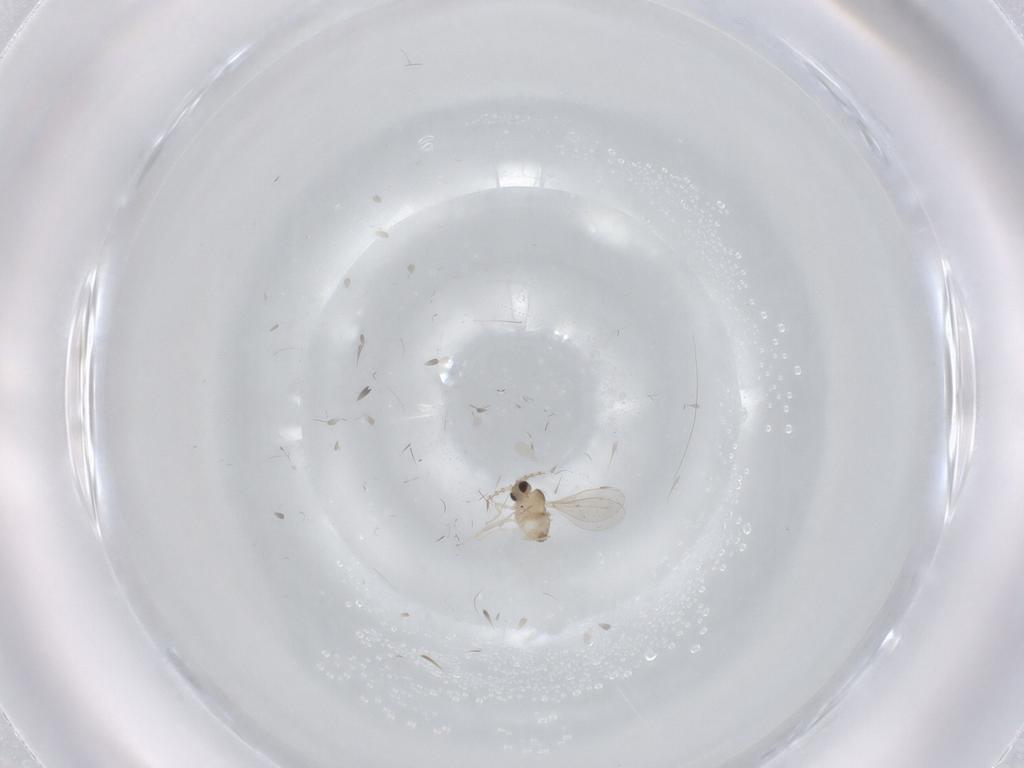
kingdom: Animalia
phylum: Arthropoda
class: Insecta
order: Diptera
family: Cecidomyiidae
